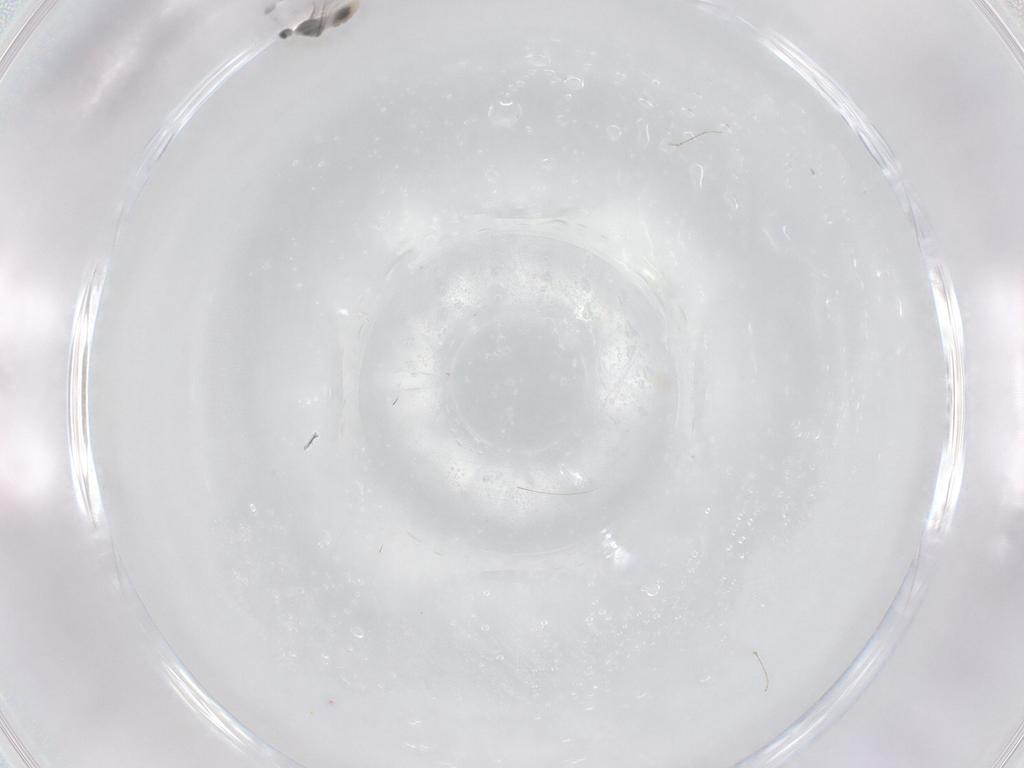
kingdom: Animalia
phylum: Arthropoda
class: Insecta
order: Diptera
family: Cecidomyiidae
